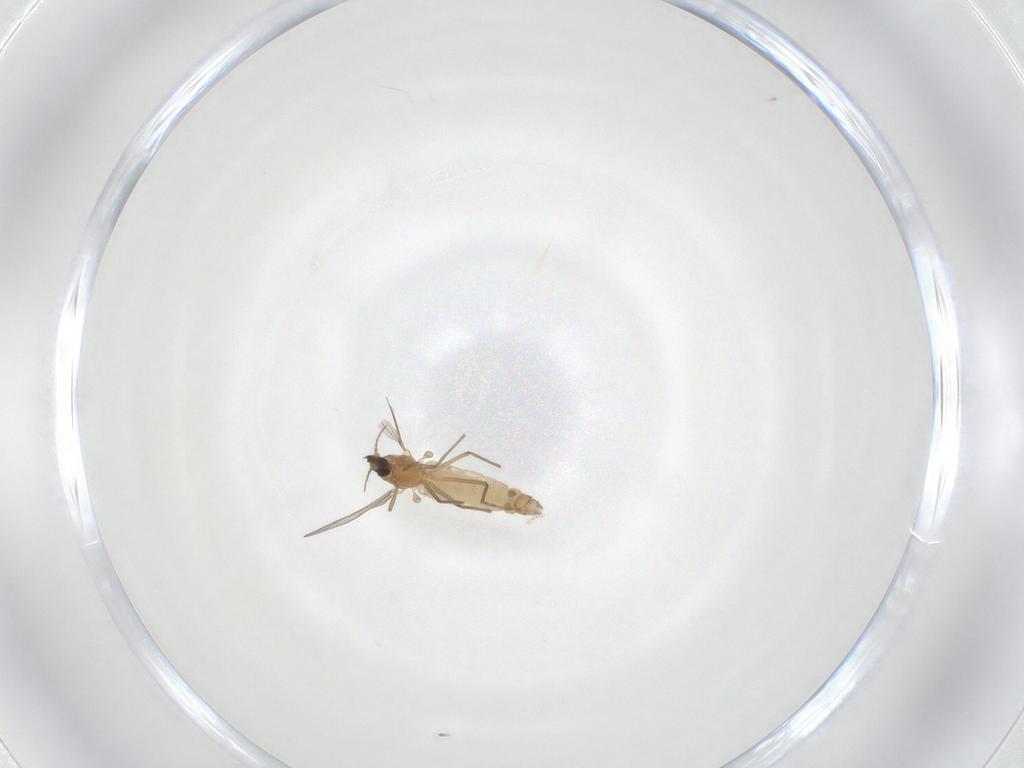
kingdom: Animalia
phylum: Arthropoda
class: Insecta
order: Diptera
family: Chironomidae
